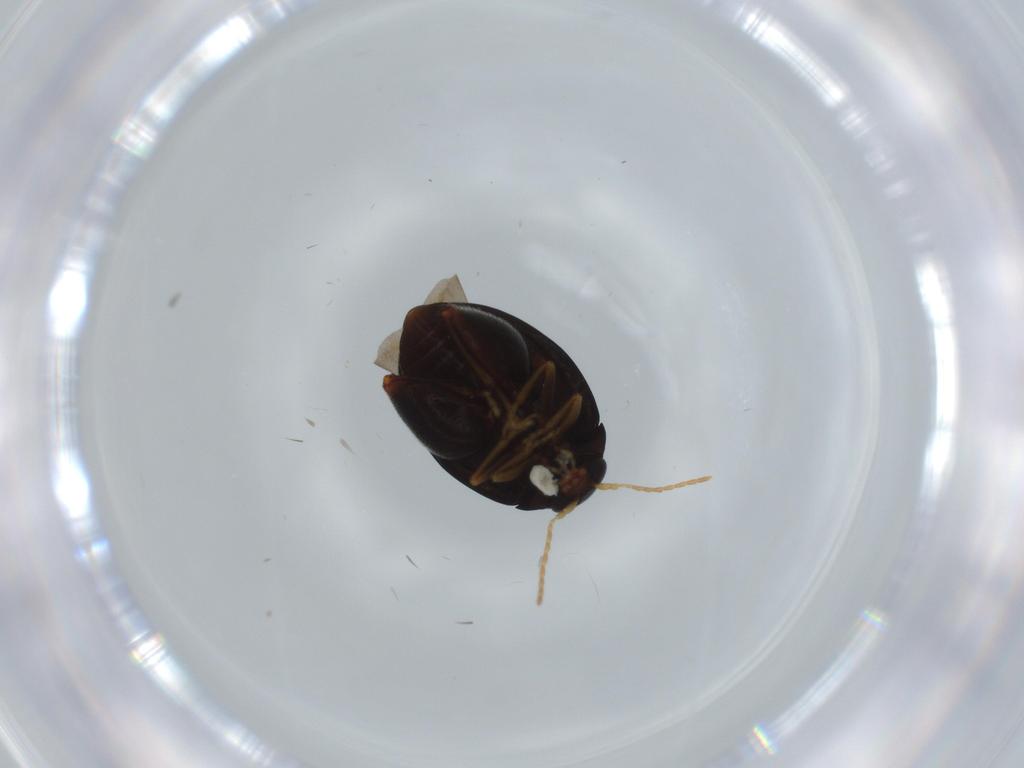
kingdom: Animalia
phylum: Arthropoda
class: Insecta
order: Coleoptera
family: Chrysomelidae
